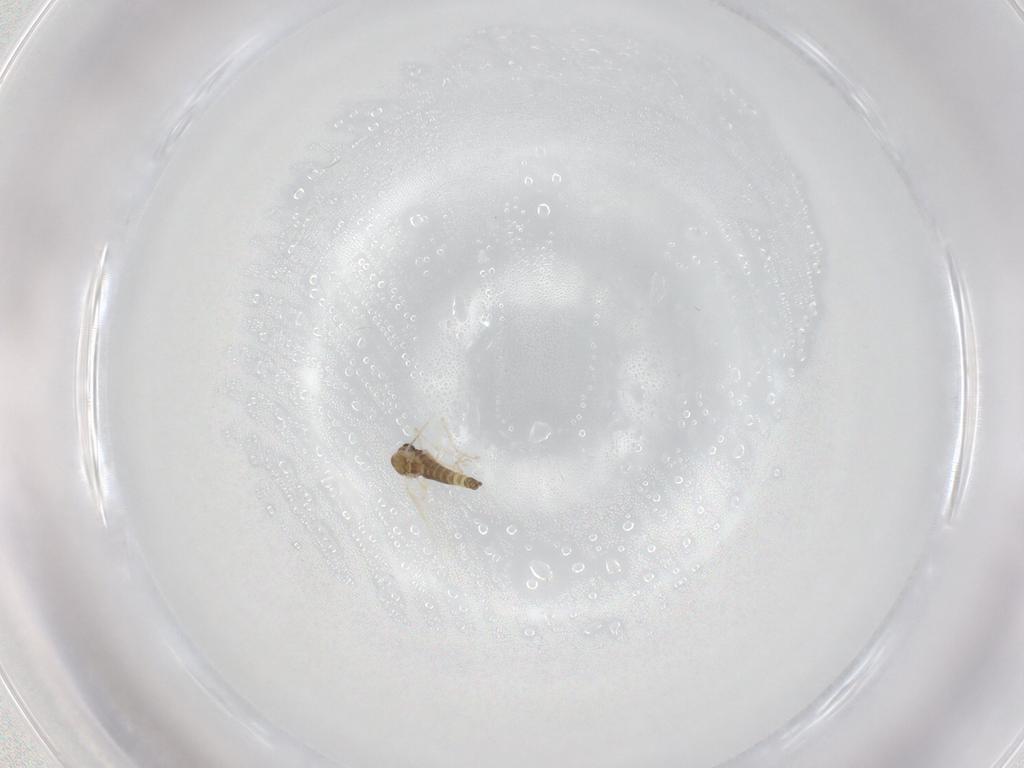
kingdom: Animalia
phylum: Arthropoda
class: Insecta
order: Diptera
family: Chironomidae
